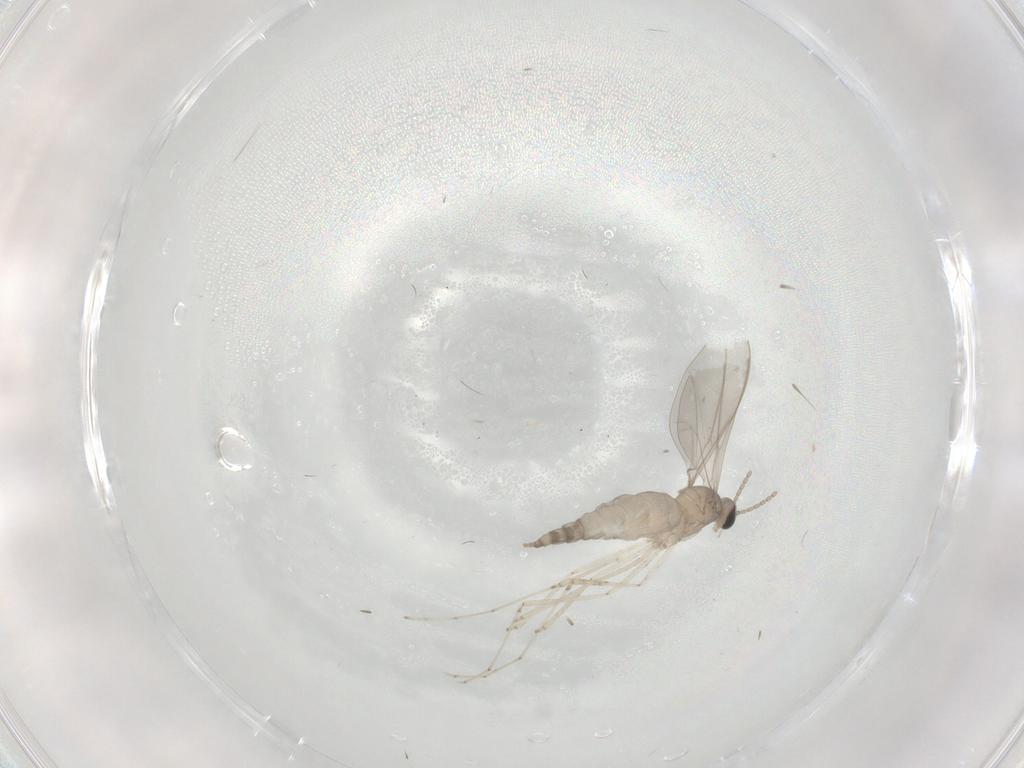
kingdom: Animalia
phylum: Arthropoda
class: Insecta
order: Diptera
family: Cecidomyiidae
